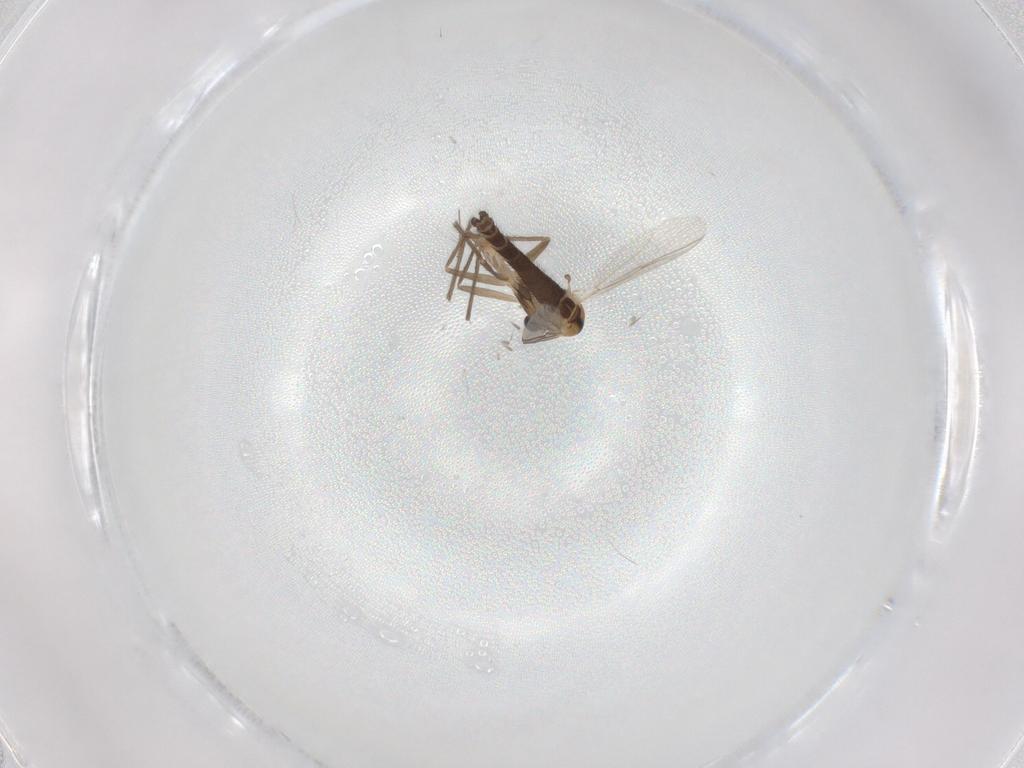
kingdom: Animalia
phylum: Arthropoda
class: Insecta
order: Diptera
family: Chironomidae
